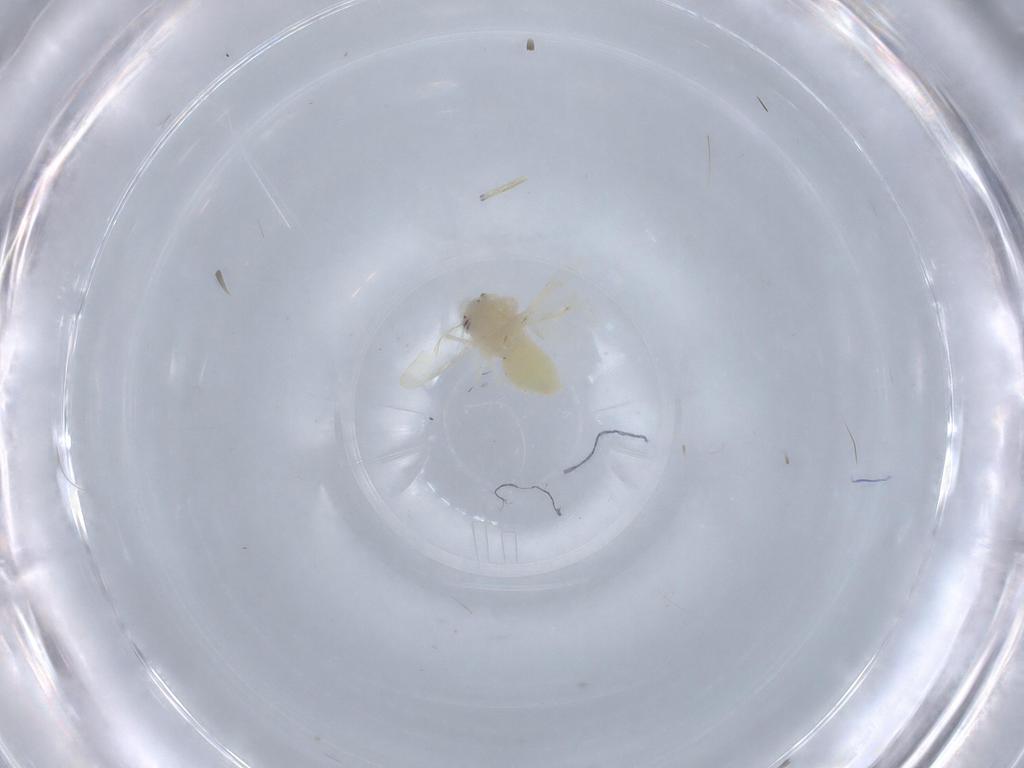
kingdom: Animalia
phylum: Arthropoda
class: Insecta
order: Hemiptera
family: Aleyrodidae
